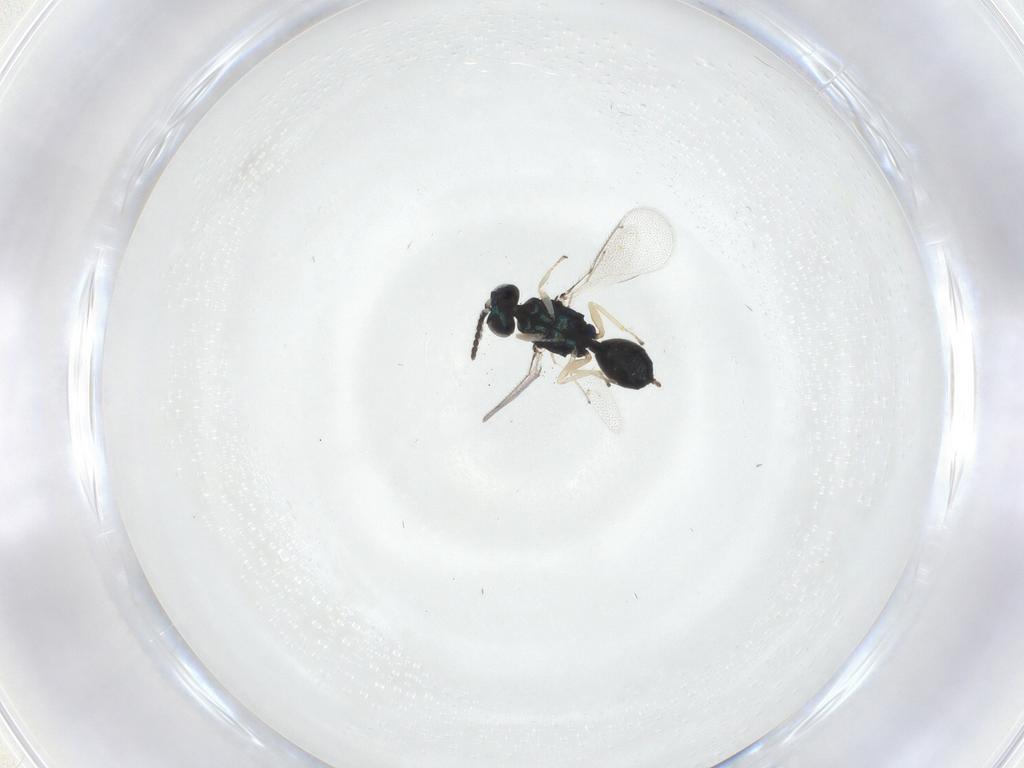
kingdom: Animalia
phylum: Arthropoda
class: Insecta
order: Hymenoptera
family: Eulophidae
